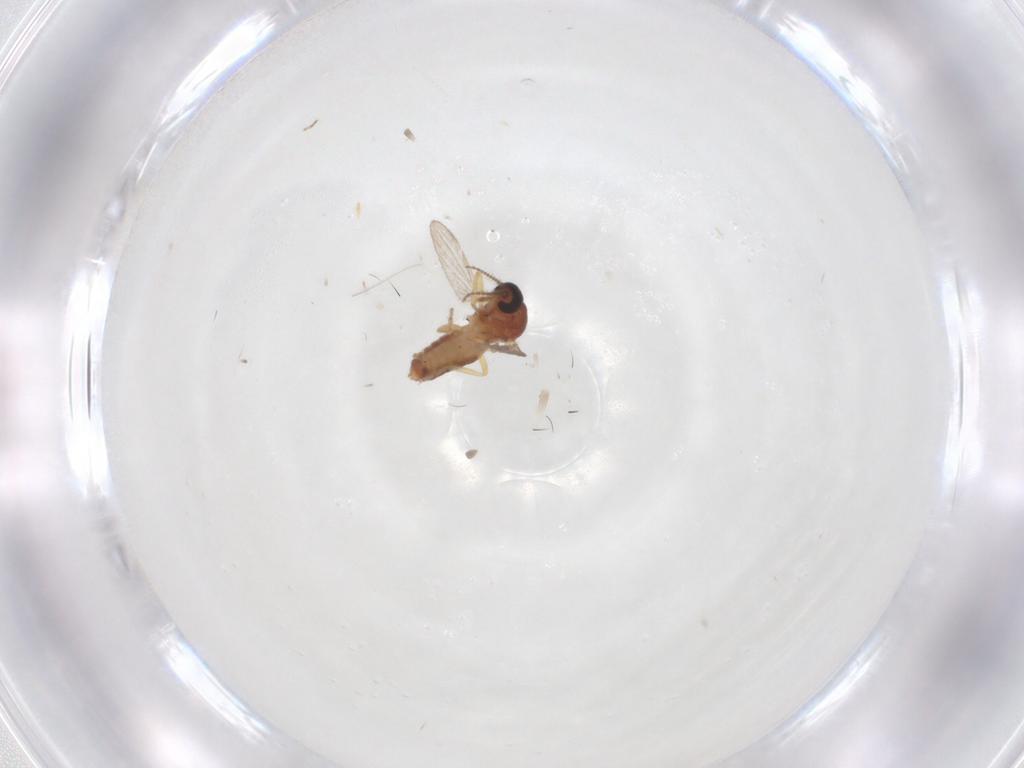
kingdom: Animalia
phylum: Arthropoda
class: Insecta
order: Diptera
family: Ceratopogonidae
